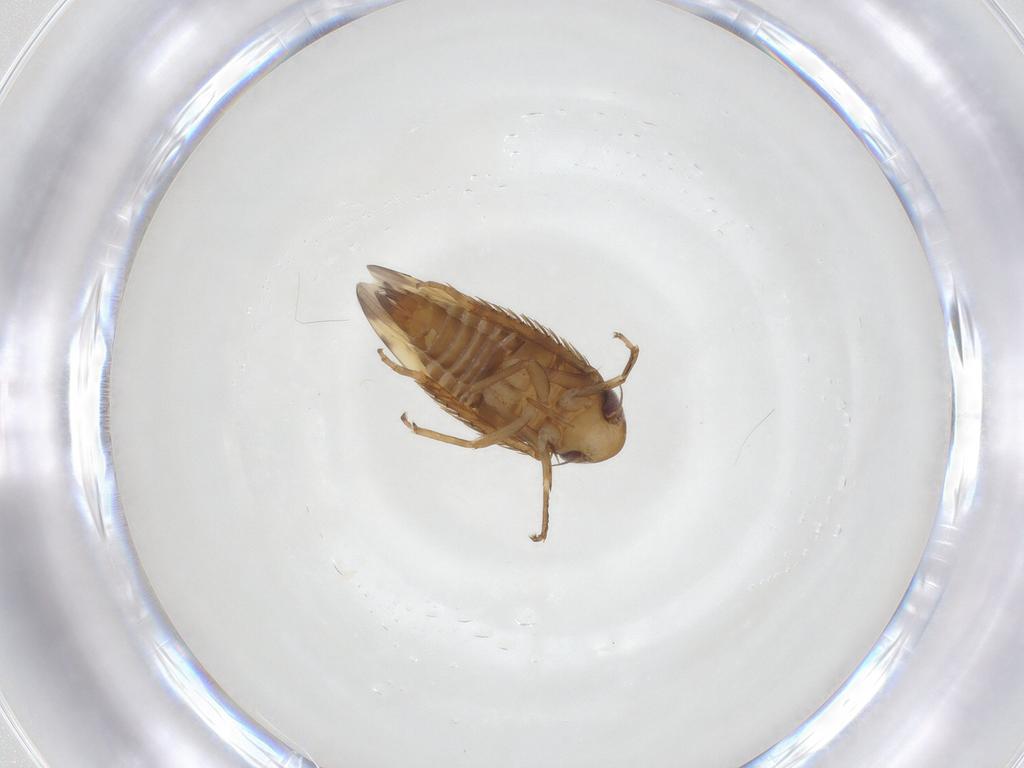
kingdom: Animalia
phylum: Arthropoda
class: Insecta
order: Hemiptera
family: Cicadellidae
